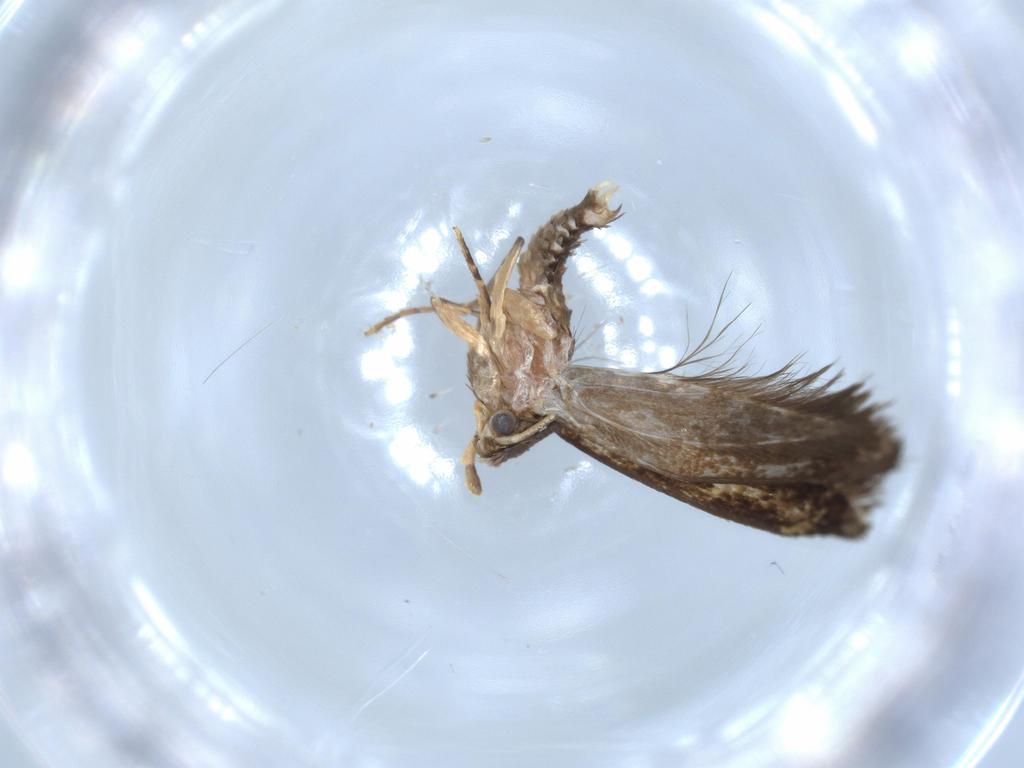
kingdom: Animalia
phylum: Arthropoda
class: Insecta
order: Lepidoptera
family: Tineidae
